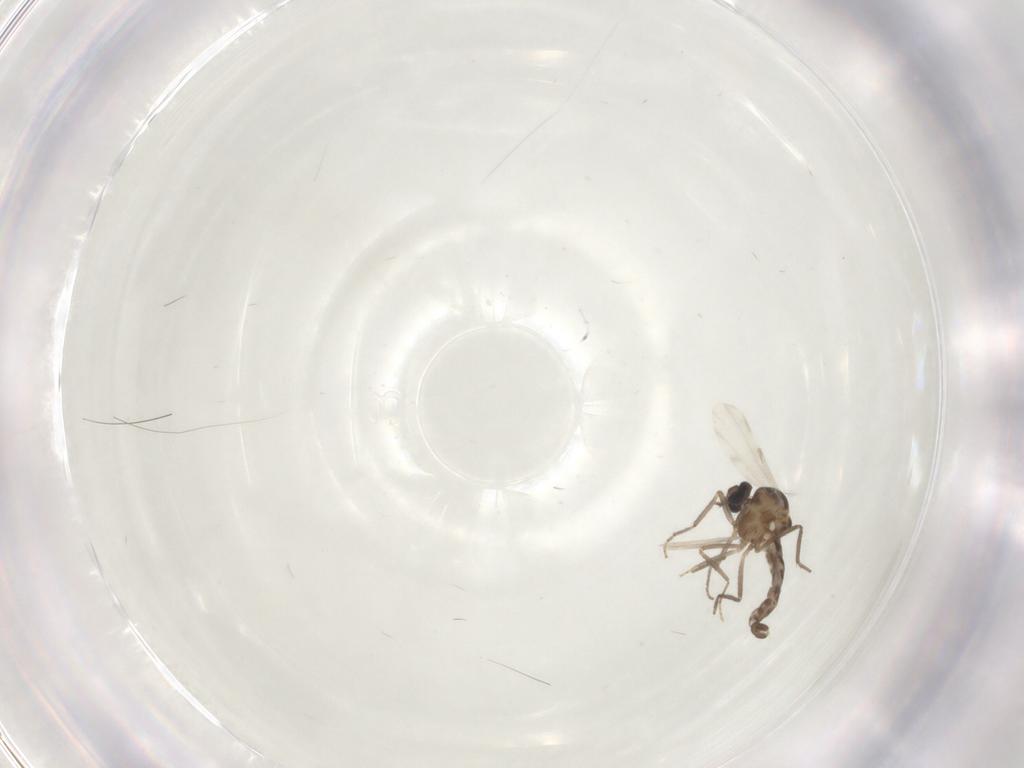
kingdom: Animalia
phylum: Arthropoda
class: Insecta
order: Diptera
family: Ceratopogonidae
